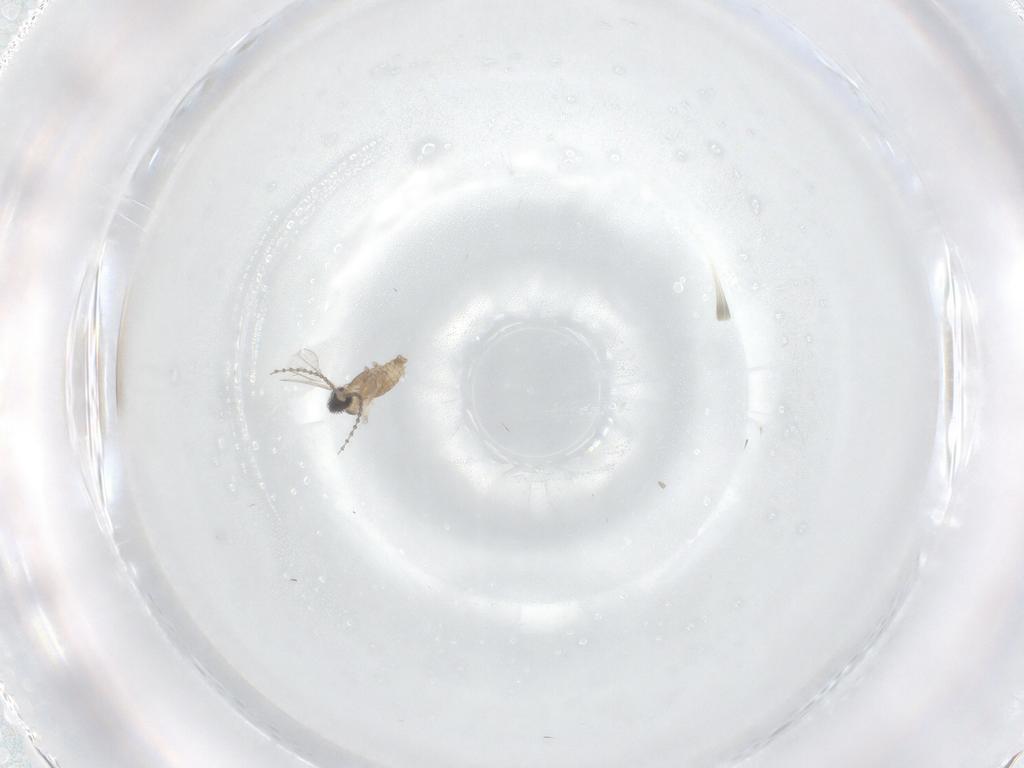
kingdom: Animalia
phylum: Arthropoda
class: Insecta
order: Diptera
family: Cecidomyiidae
